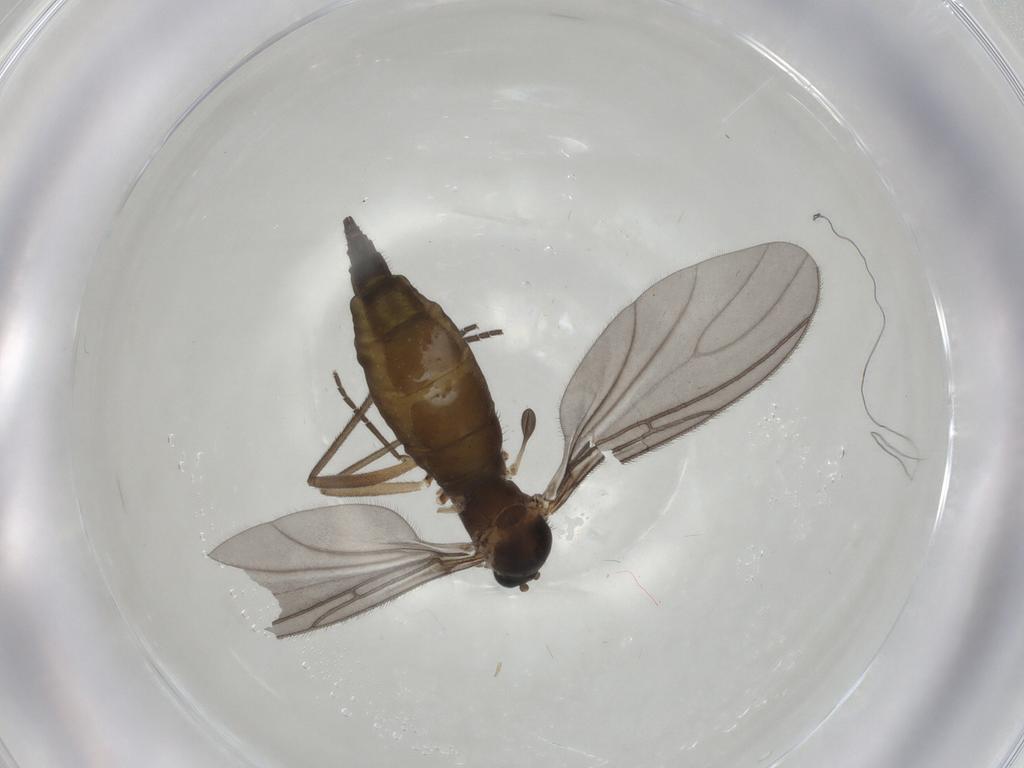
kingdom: Animalia
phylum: Arthropoda
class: Insecta
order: Diptera
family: Sciaridae
